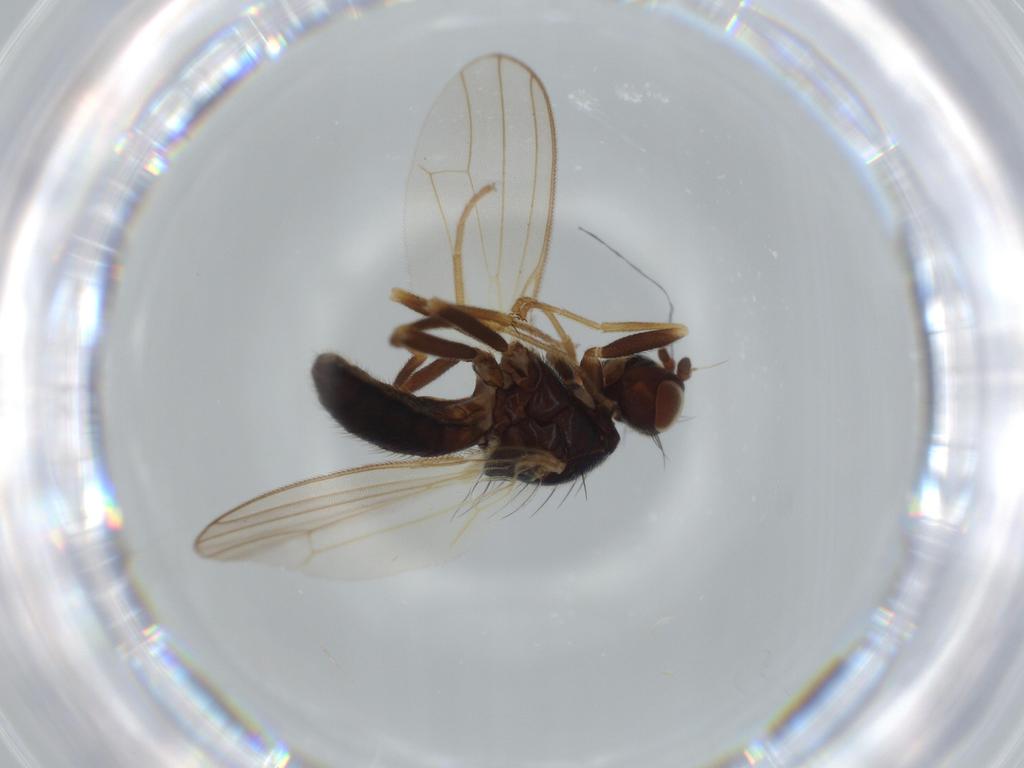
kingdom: Animalia
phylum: Arthropoda
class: Insecta
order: Diptera
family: Psilidae
